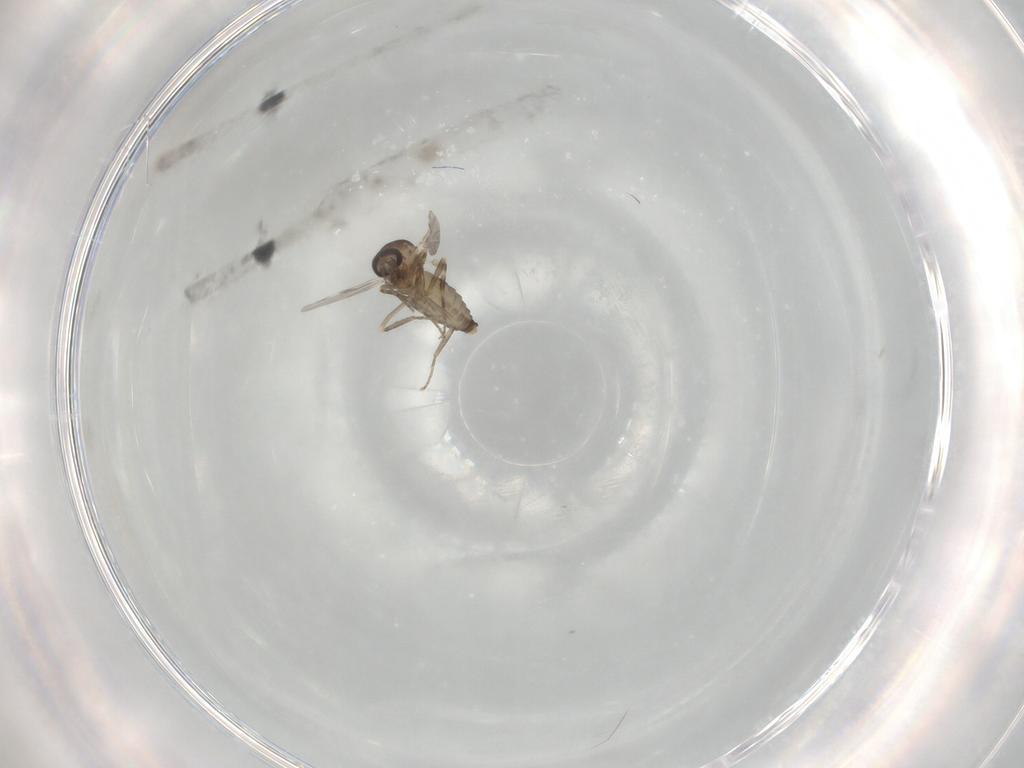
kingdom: Animalia
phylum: Arthropoda
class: Insecta
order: Diptera
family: Ceratopogonidae
